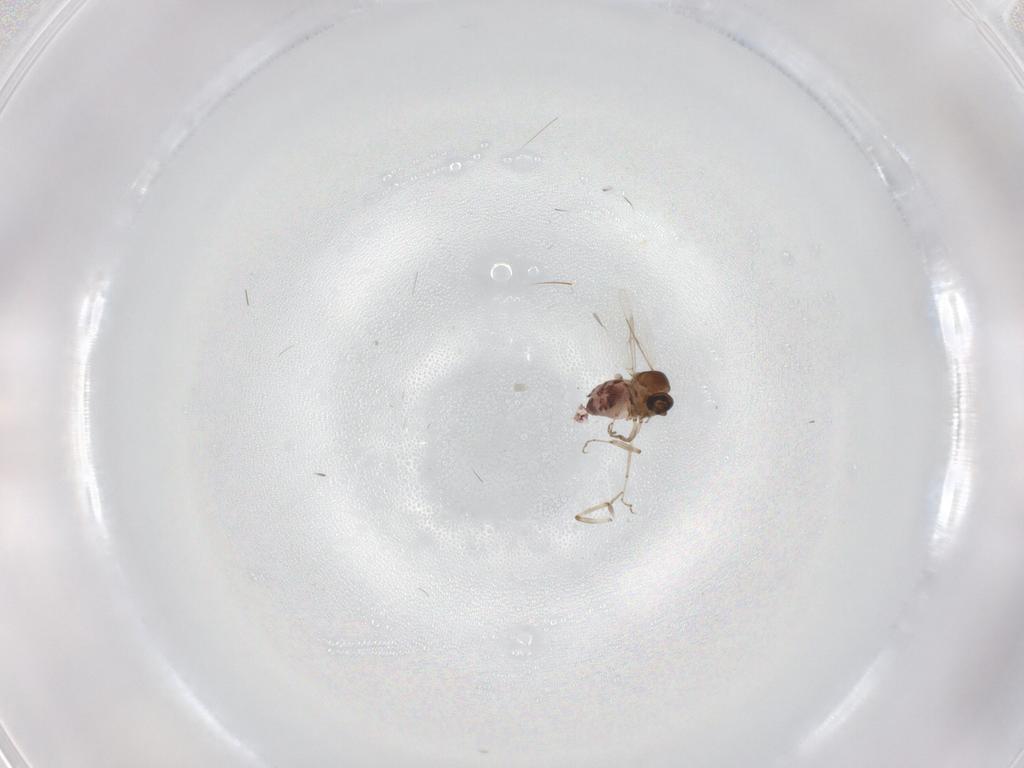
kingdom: Animalia
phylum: Arthropoda
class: Insecta
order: Diptera
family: Ceratopogonidae
